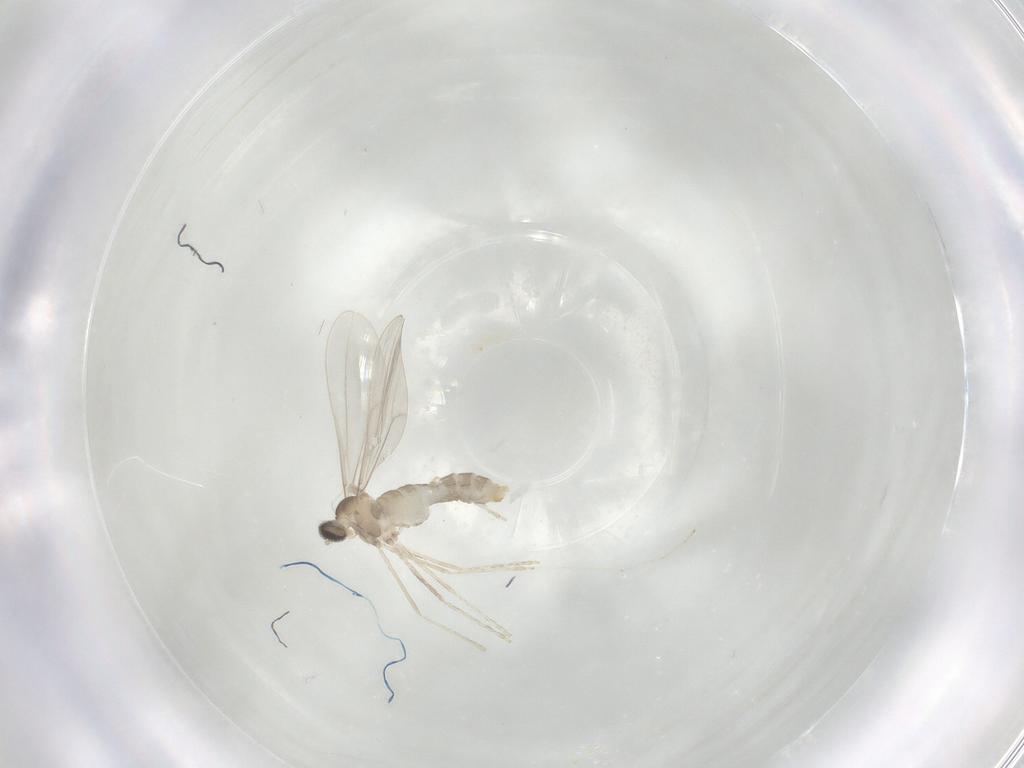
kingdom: Animalia
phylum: Arthropoda
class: Insecta
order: Diptera
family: Cecidomyiidae
